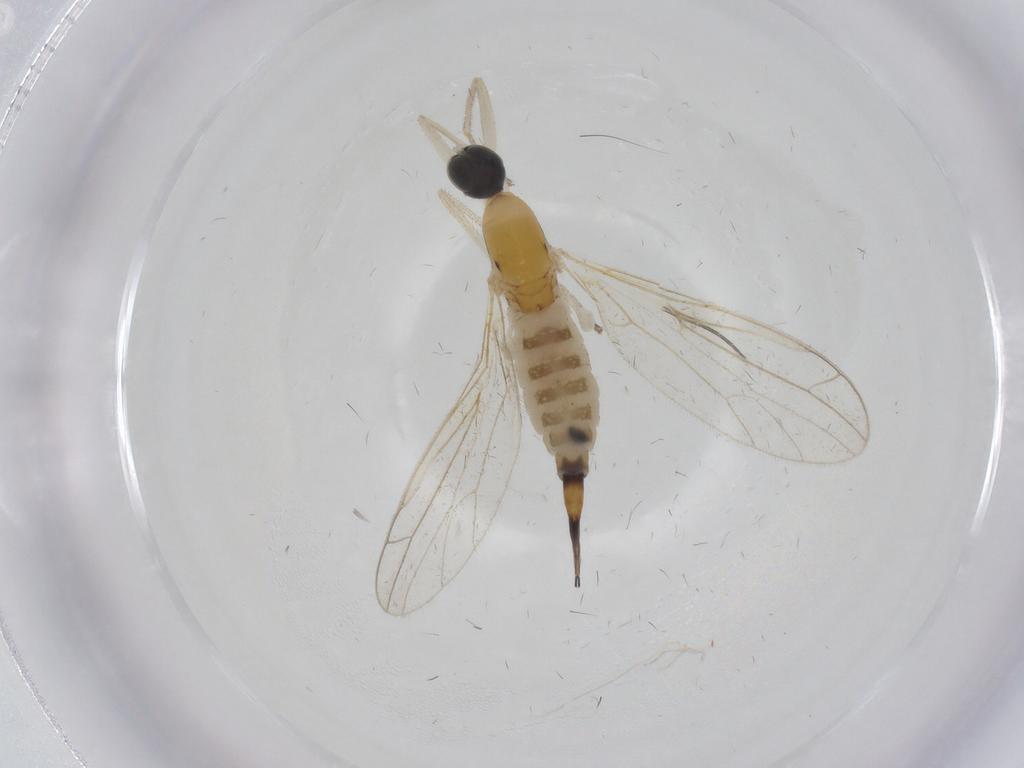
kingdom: Animalia
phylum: Arthropoda
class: Insecta
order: Diptera
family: Empididae
